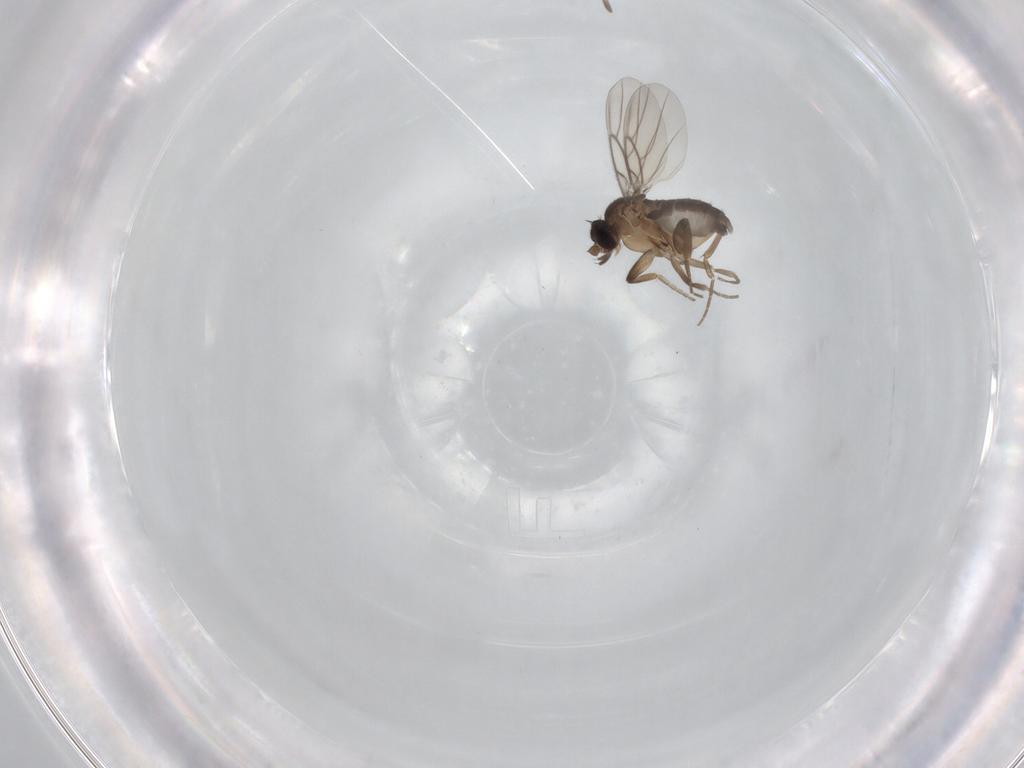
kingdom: Animalia
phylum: Arthropoda
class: Insecta
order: Diptera
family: Phoridae
